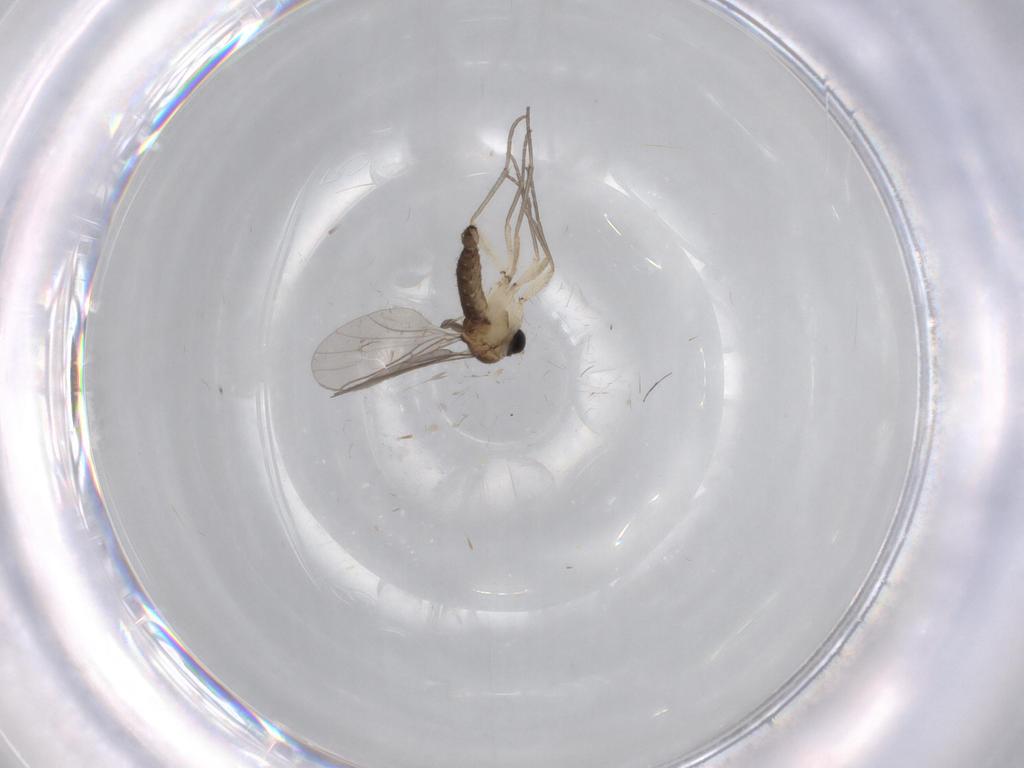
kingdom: Animalia
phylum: Arthropoda
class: Insecta
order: Diptera
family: Sciaridae
